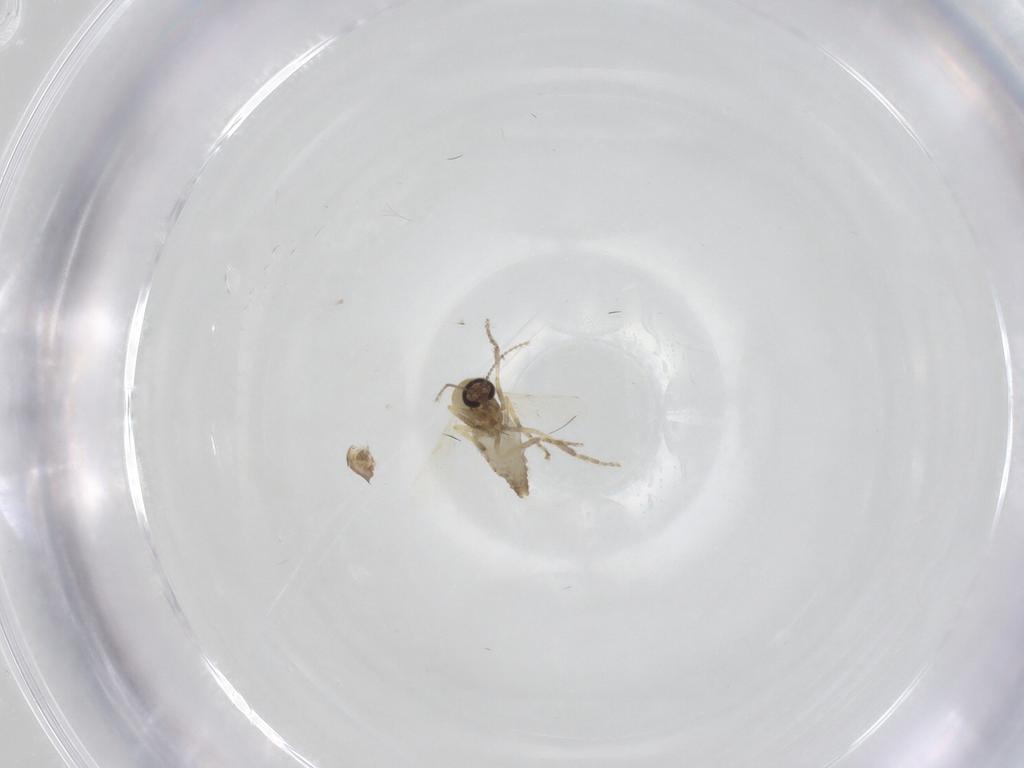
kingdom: Animalia
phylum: Arthropoda
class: Insecta
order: Diptera
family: Ceratopogonidae
